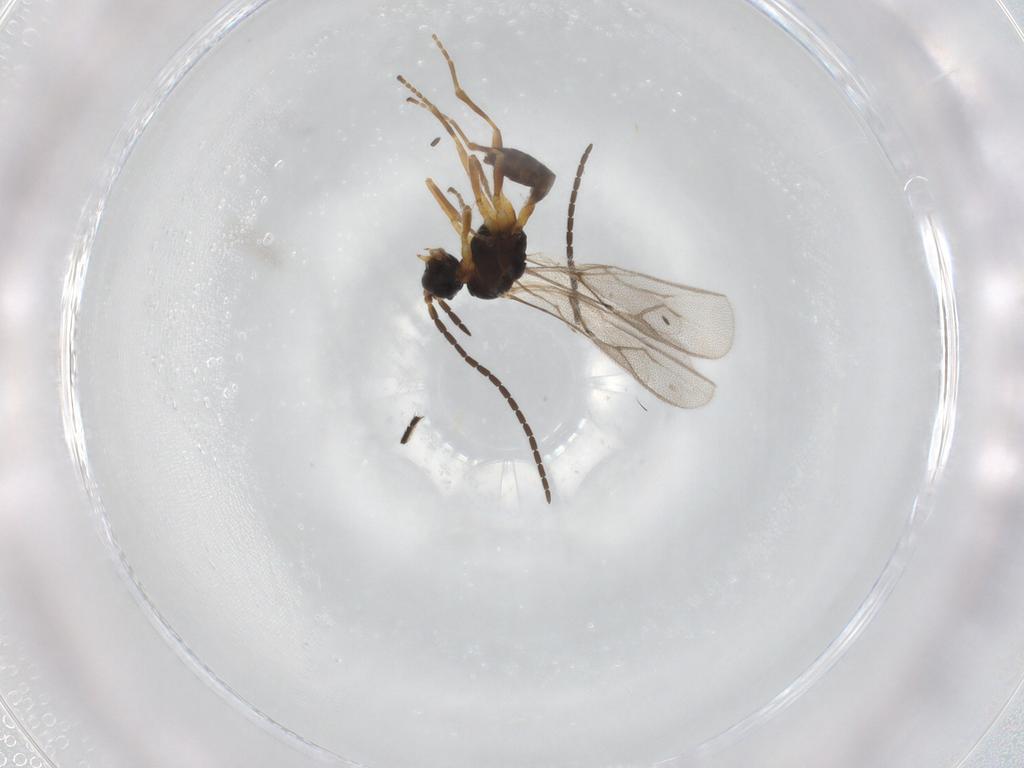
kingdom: Animalia
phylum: Arthropoda
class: Insecta
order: Hymenoptera
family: Braconidae
